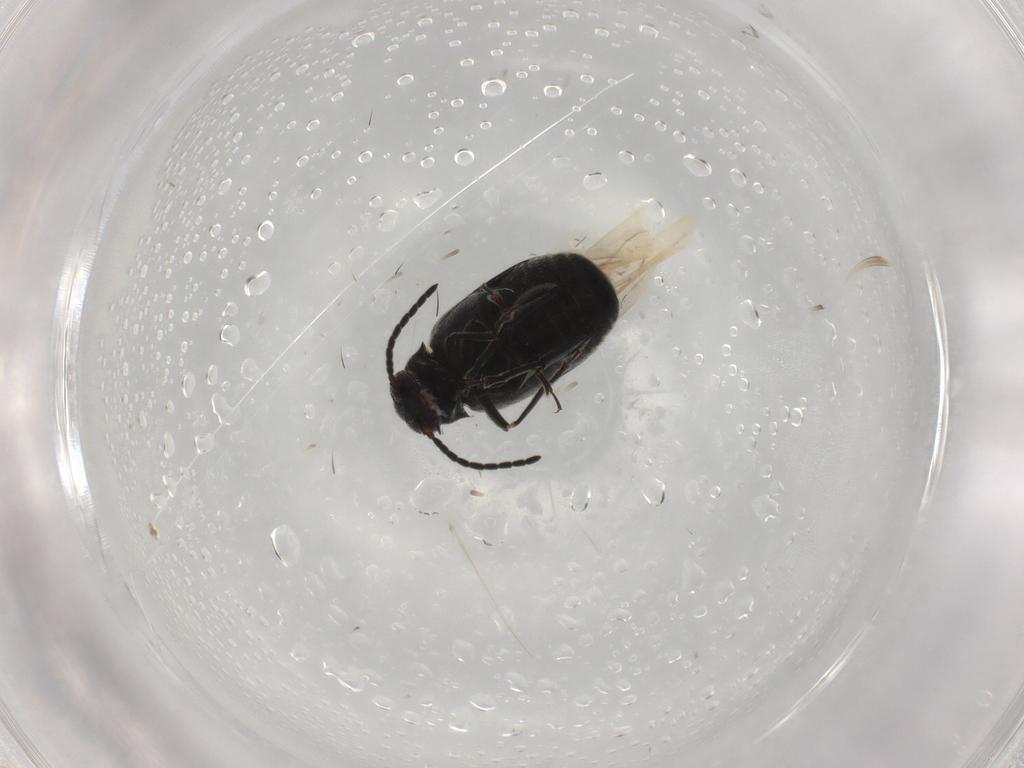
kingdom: Animalia
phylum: Arthropoda
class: Insecta
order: Coleoptera
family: Chrysomelidae
